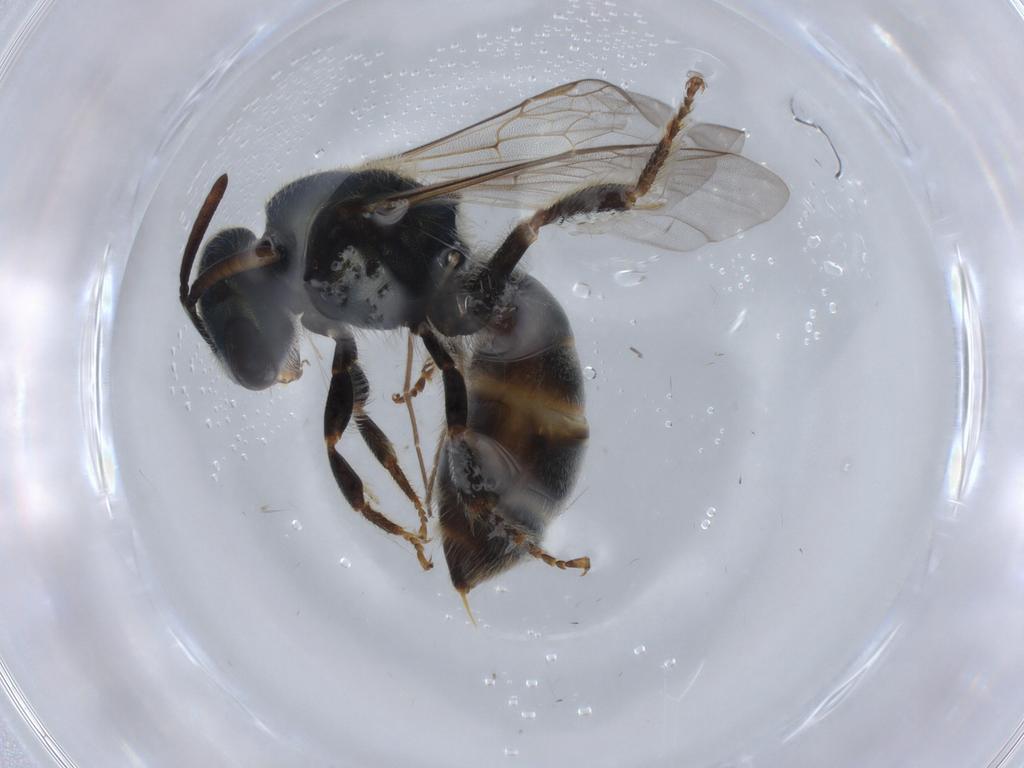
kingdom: Animalia
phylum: Arthropoda
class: Insecta
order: Hymenoptera
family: Halictidae
